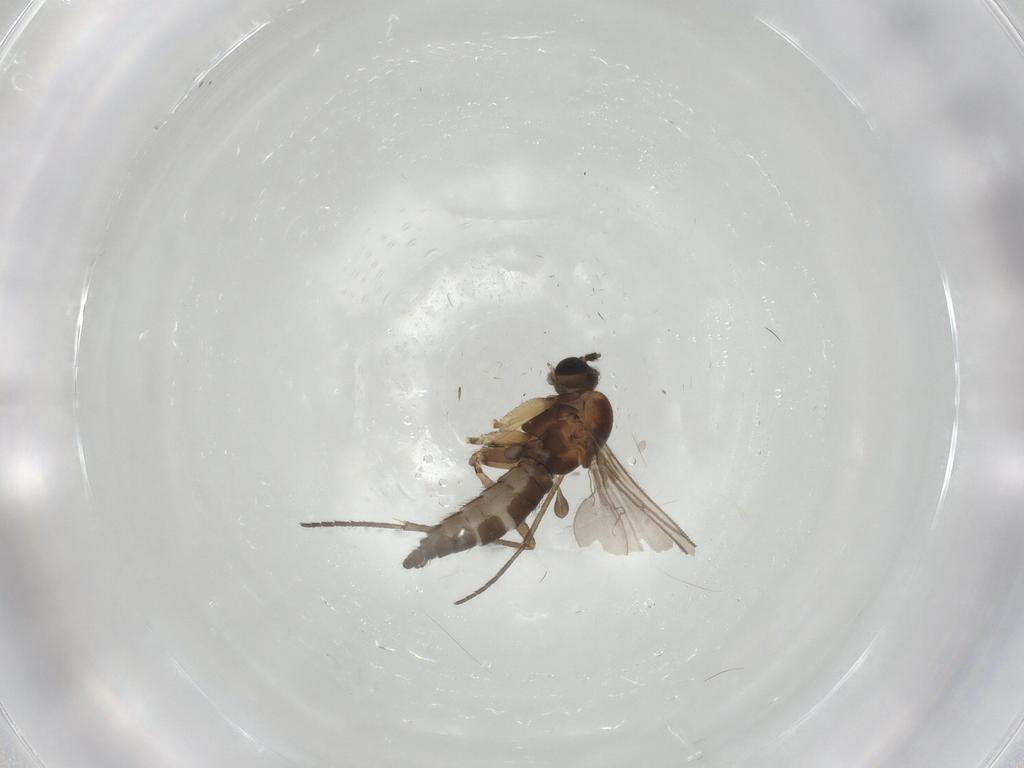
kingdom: Animalia
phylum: Arthropoda
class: Insecta
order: Diptera
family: Sciaridae
